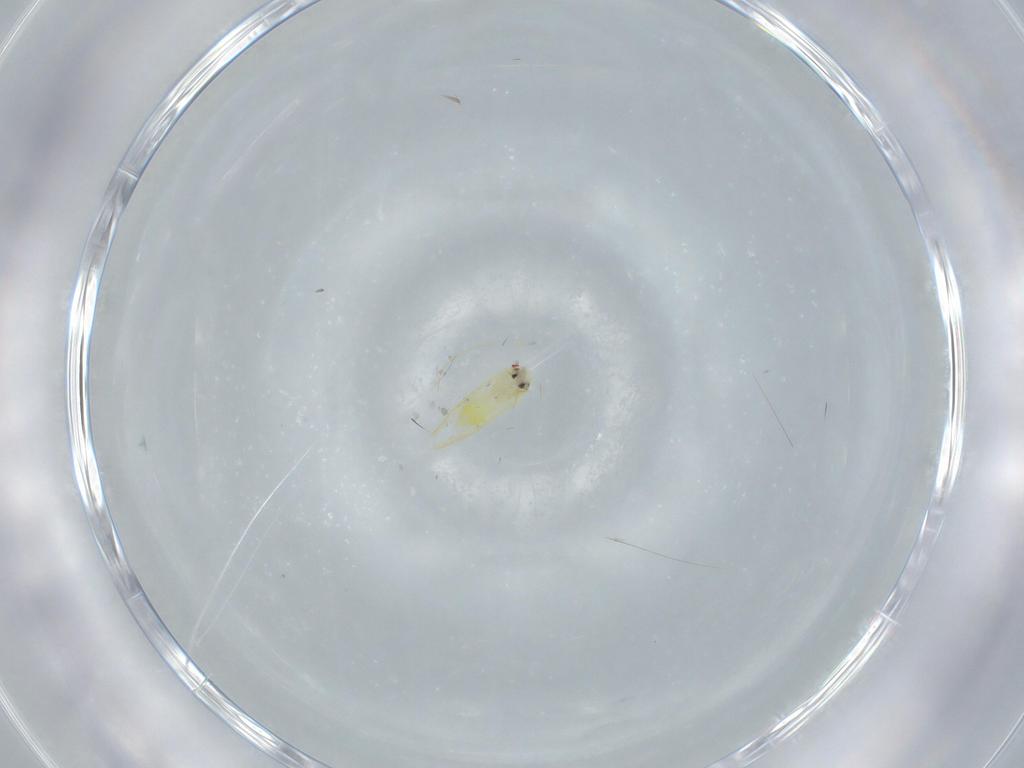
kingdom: Animalia
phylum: Arthropoda
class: Insecta
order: Hemiptera
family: Aleyrodidae
